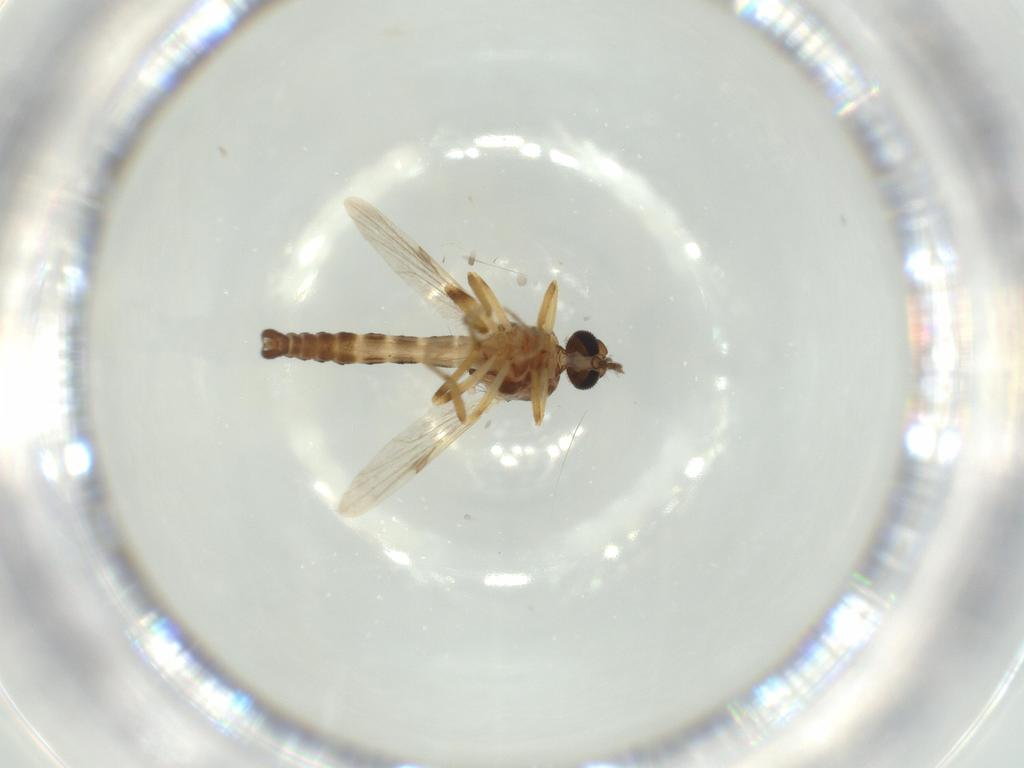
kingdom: Animalia
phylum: Arthropoda
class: Insecta
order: Diptera
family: Ceratopogonidae
